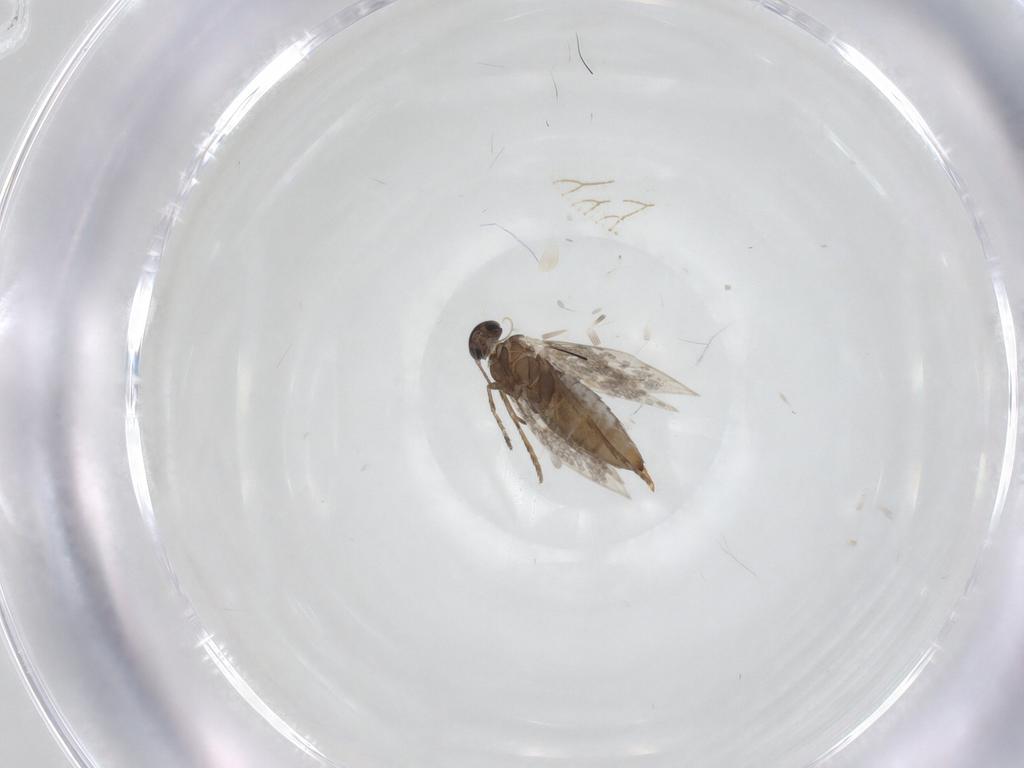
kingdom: Animalia
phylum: Arthropoda
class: Insecta
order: Lepidoptera
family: Heliozelidae
